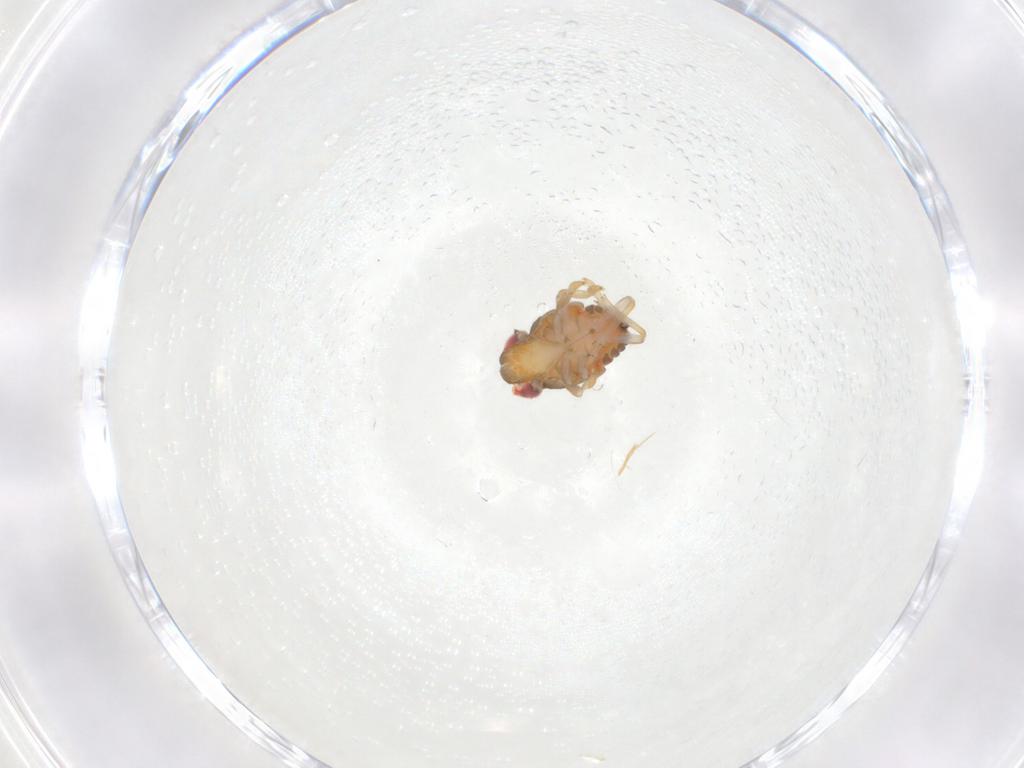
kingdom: Animalia
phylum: Arthropoda
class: Insecta
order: Hemiptera
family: Issidae
